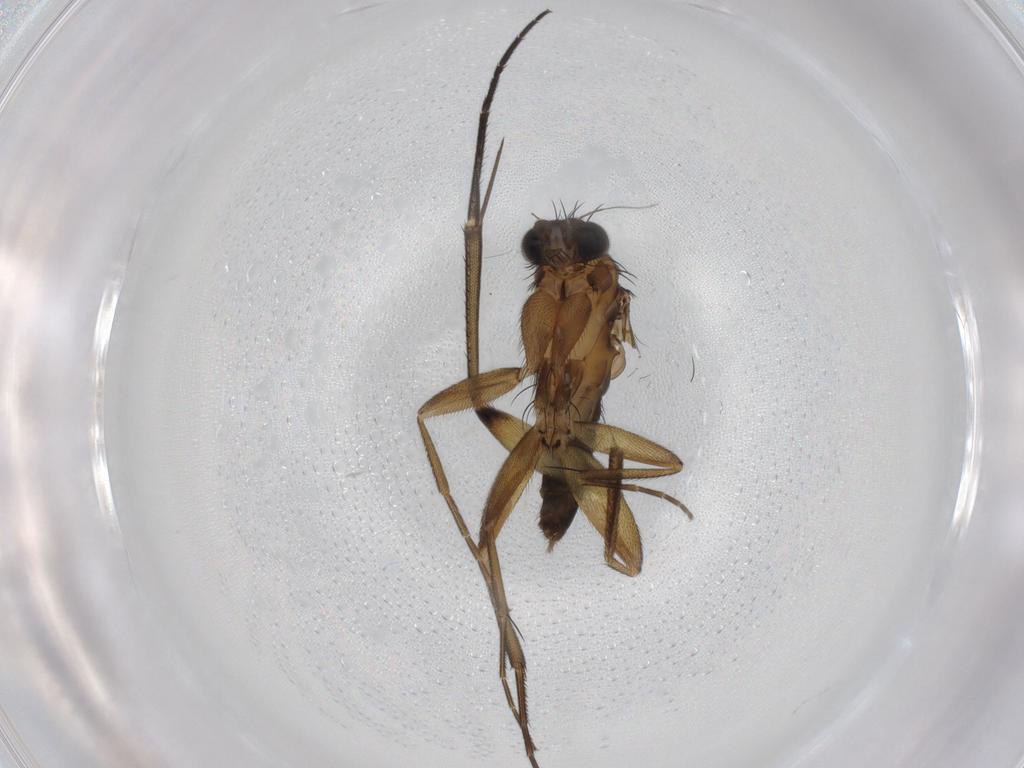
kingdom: Animalia
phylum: Arthropoda
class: Insecta
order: Diptera
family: Phoridae
